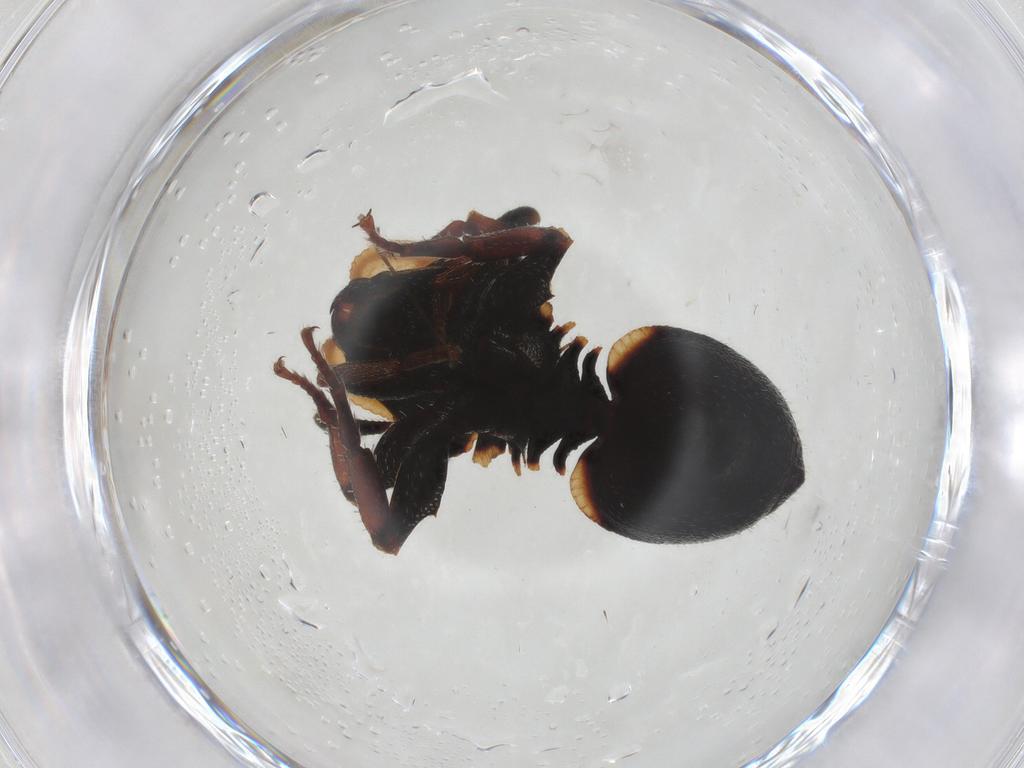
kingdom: Animalia
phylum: Arthropoda
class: Insecta
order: Hymenoptera
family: Formicidae
